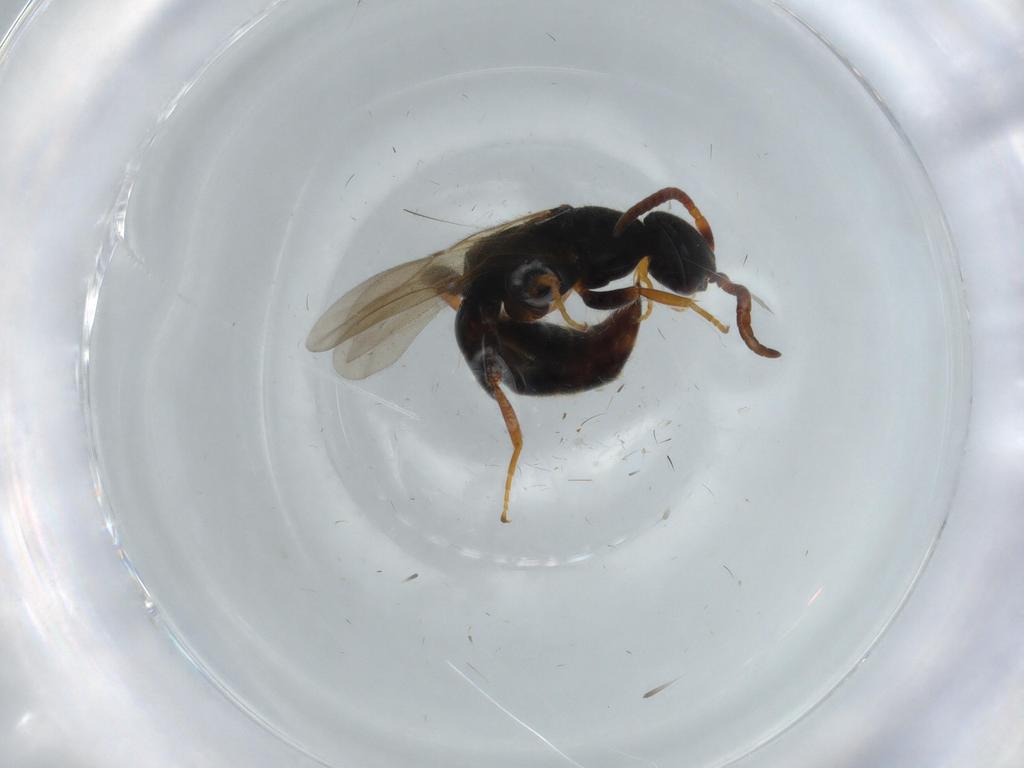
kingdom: Animalia
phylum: Arthropoda
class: Insecta
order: Hymenoptera
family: Bethylidae
